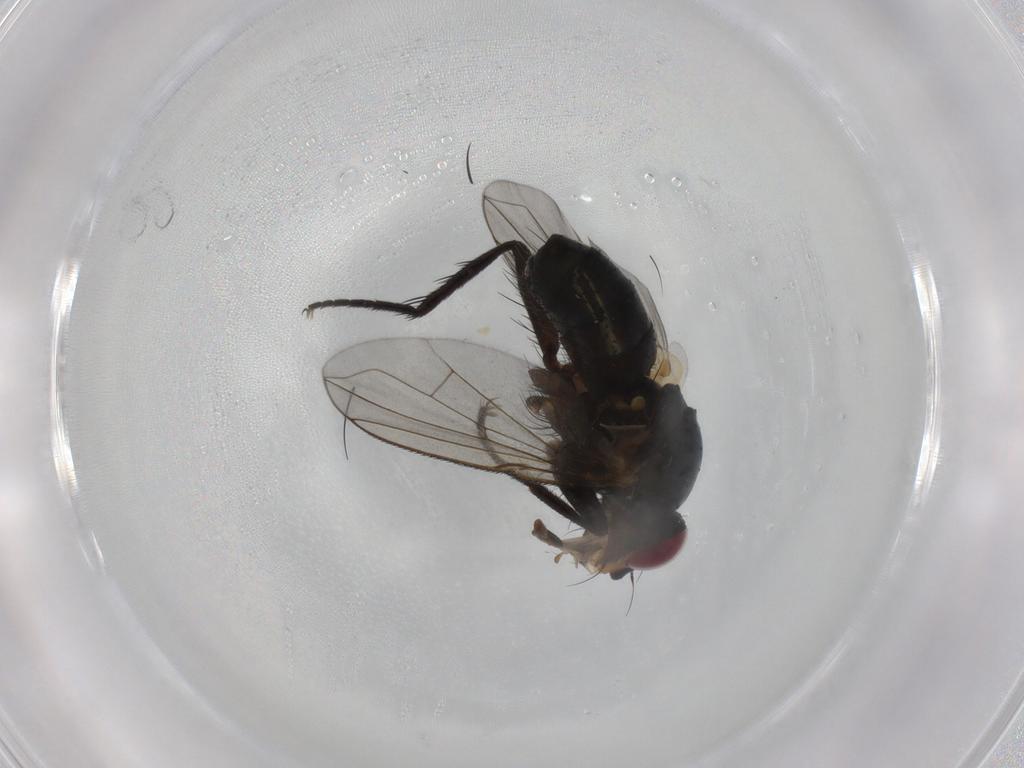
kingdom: Animalia
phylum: Arthropoda
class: Insecta
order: Diptera
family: Calliphoridae
